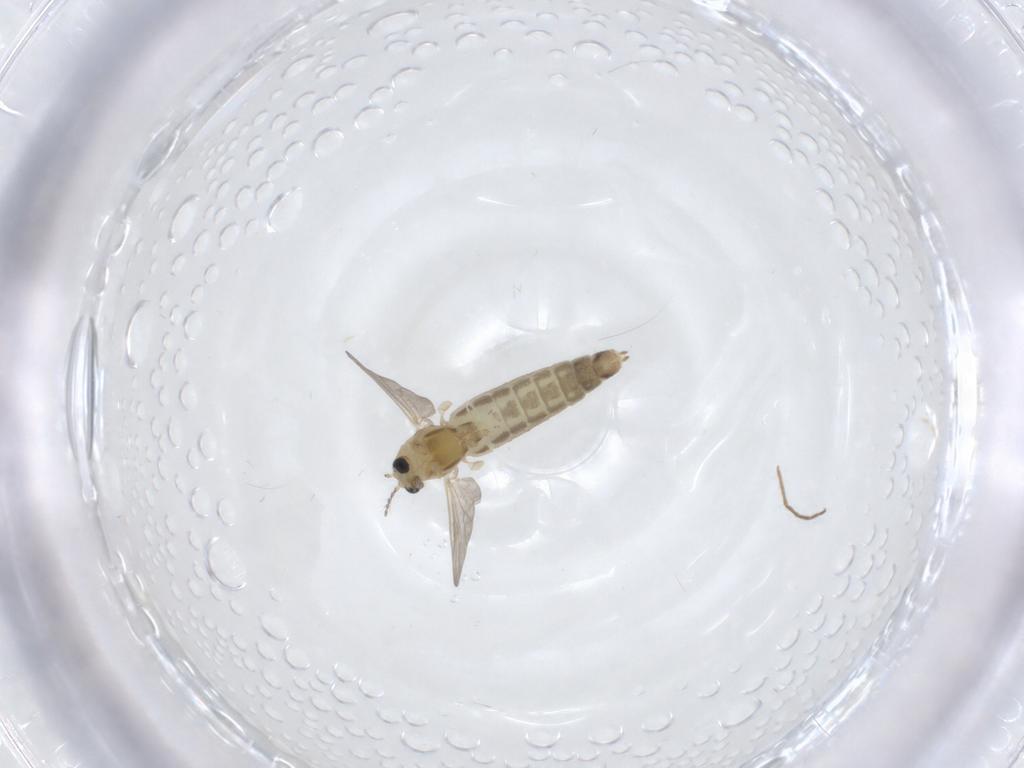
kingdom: Animalia
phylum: Arthropoda
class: Insecta
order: Diptera
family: Chironomidae
